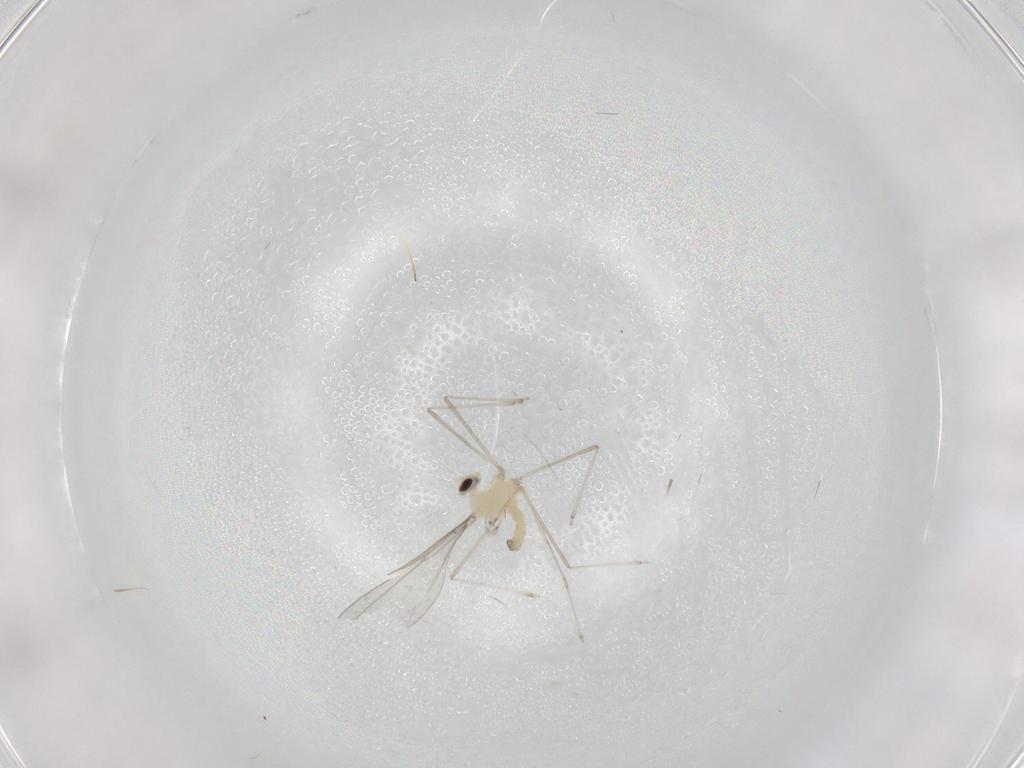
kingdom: Animalia
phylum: Arthropoda
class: Insecta
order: Diptera
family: Cecidomyiidae
